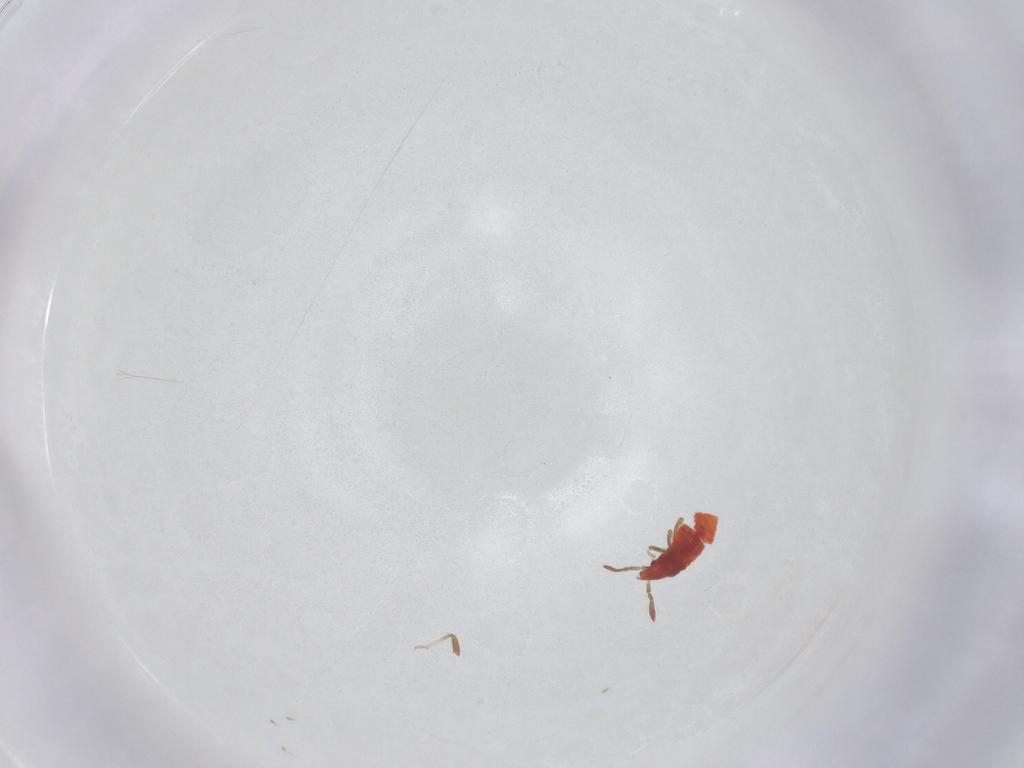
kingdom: Animalia
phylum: Arthropoda
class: Insecta
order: Hemiptera
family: Microphysidae
